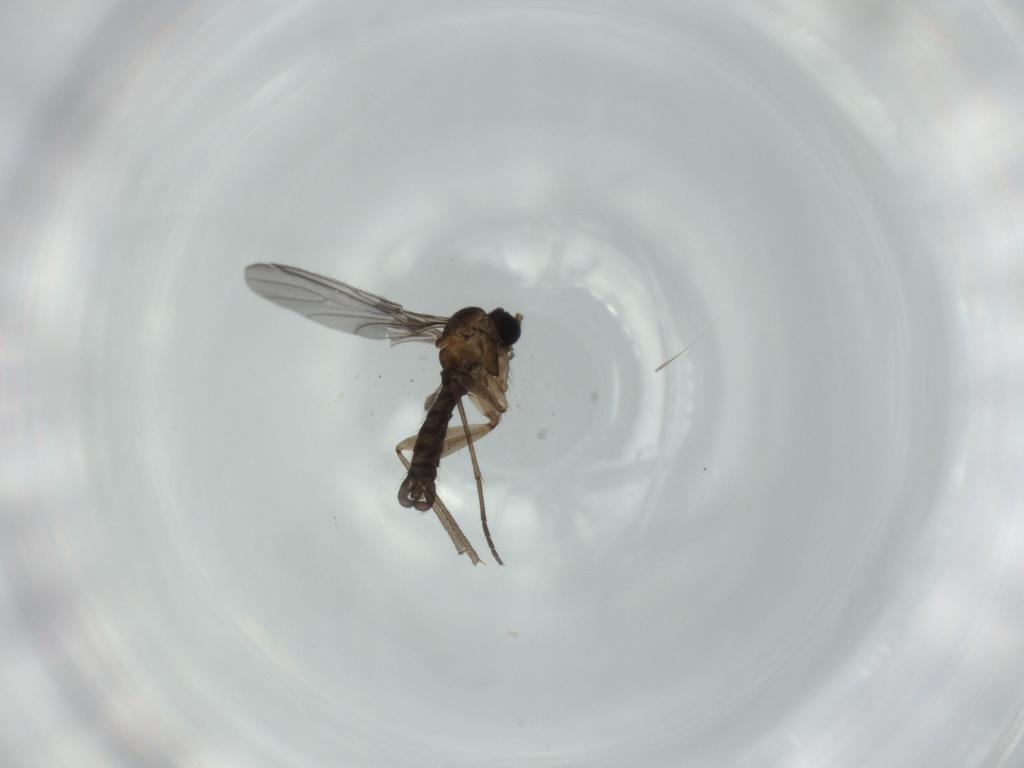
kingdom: Animalia
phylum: Arthropoda
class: Insecta
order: Diptera
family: Sciaridae
